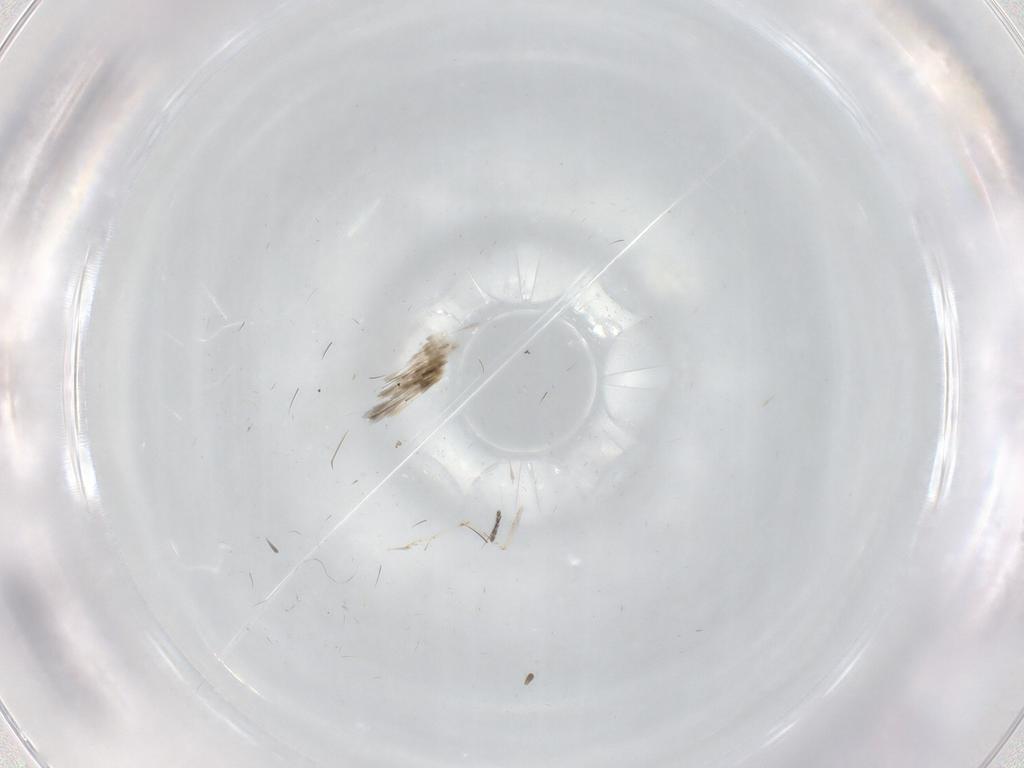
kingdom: Animalia
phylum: Arthropoda
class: Insecta
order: Diptera
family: Sciaridae
